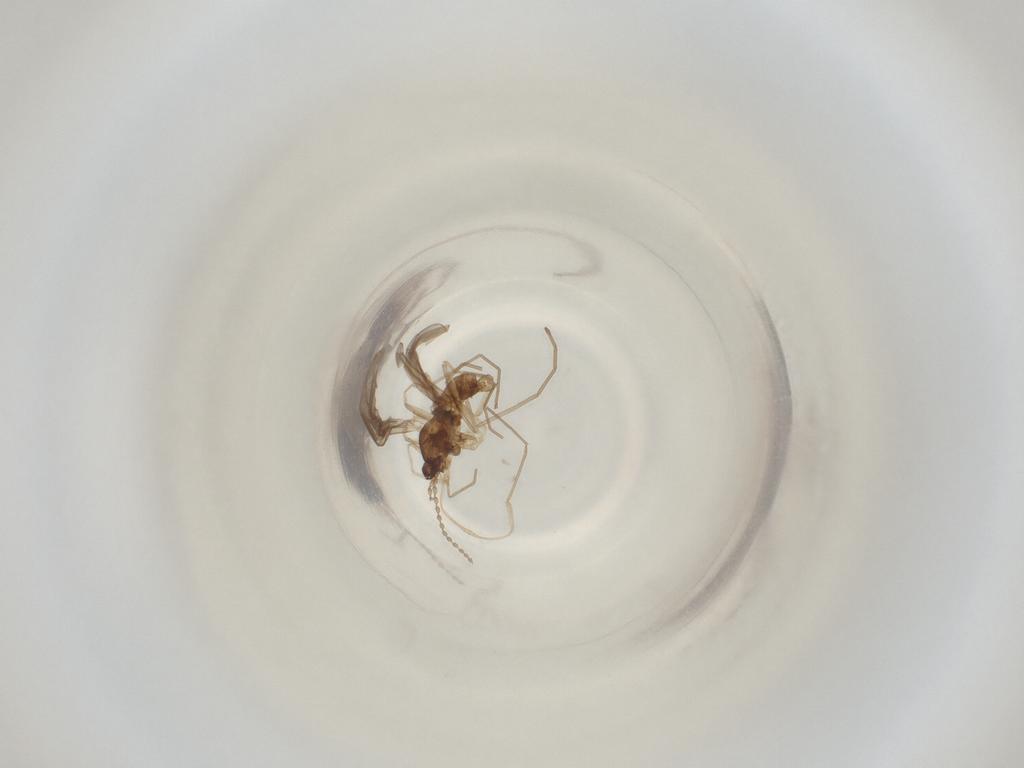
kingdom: Animalia
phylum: Arthropoda
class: Insecta
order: Diptera
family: Cecidomyiidae
